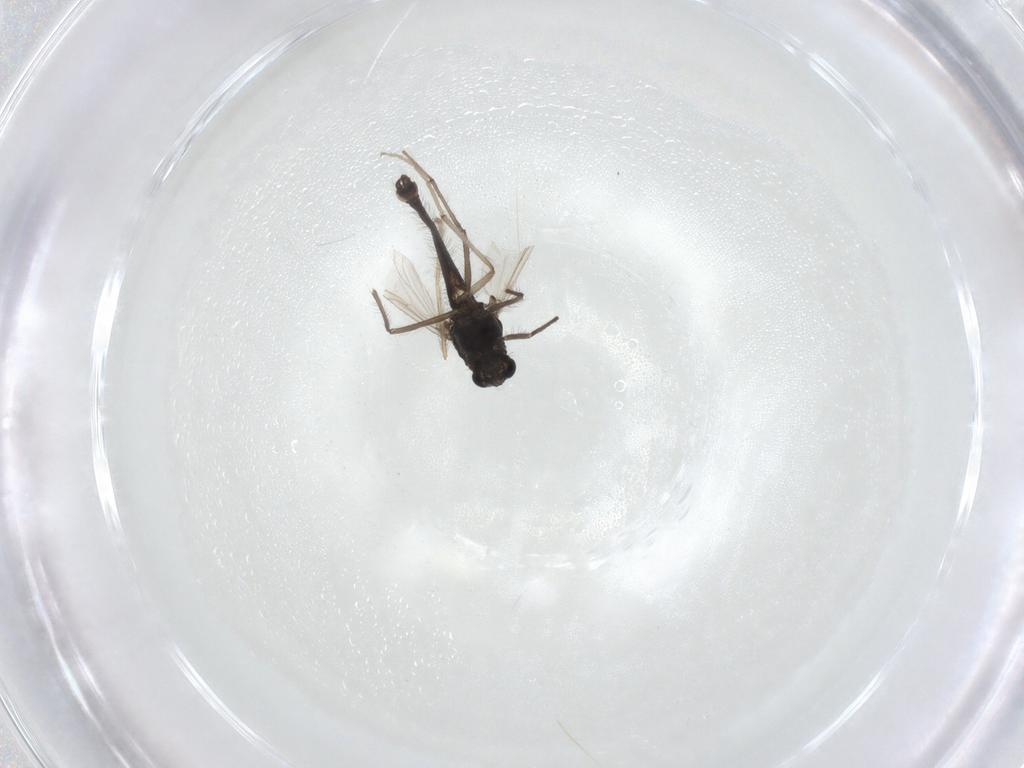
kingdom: Animalia
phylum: Arthropoda
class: Insecta
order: Diptera
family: Chironomidae
